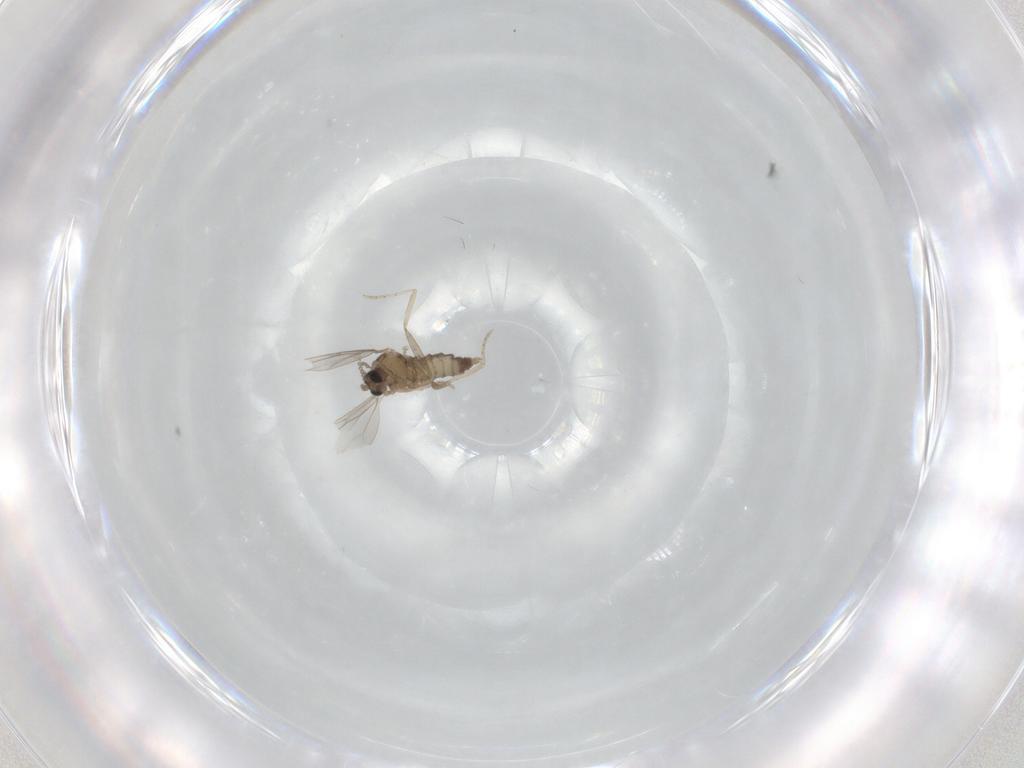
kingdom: Animalia
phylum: Arthropoda
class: Insecta
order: Diptera
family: Cecidomyiidae
